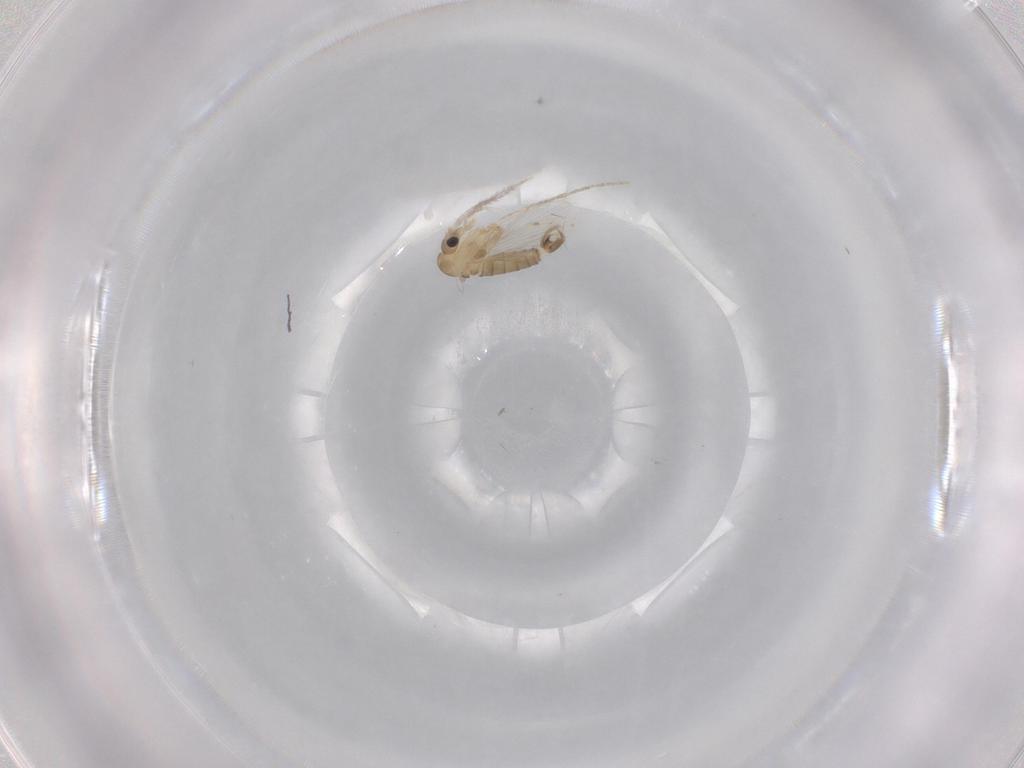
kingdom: Animalia
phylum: Arthropoda
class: Insecta
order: Diptera
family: Psychodidae
